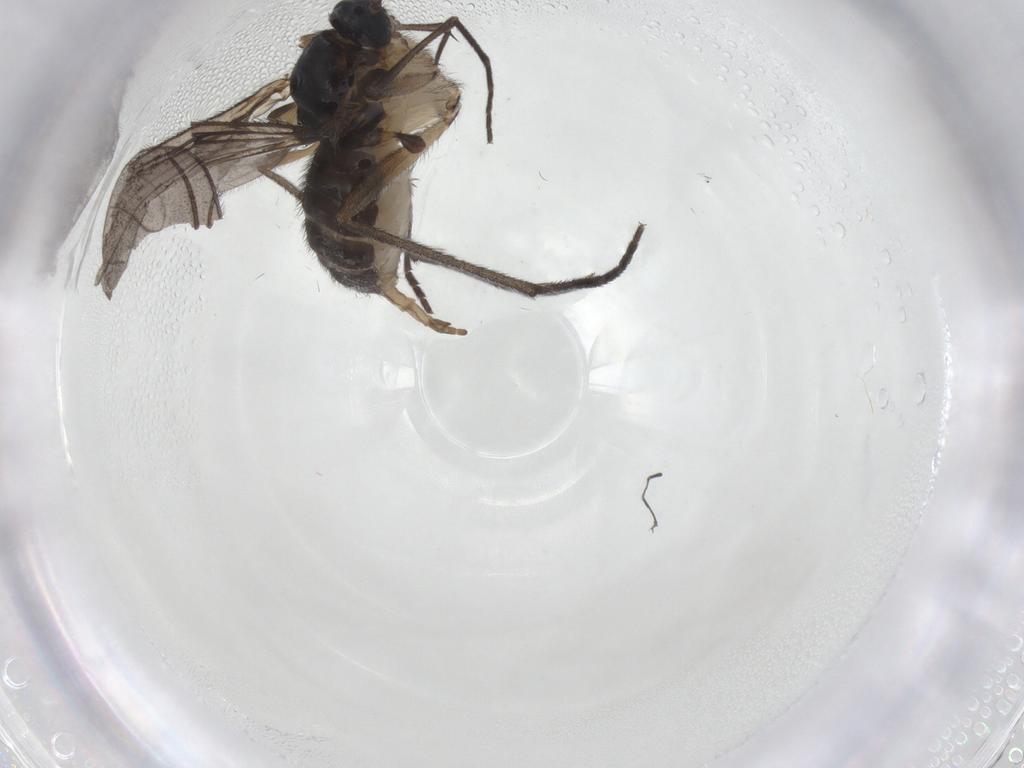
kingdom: Animalia
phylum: Arthropoda
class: Insecta
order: Diptera
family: Sciaridae
